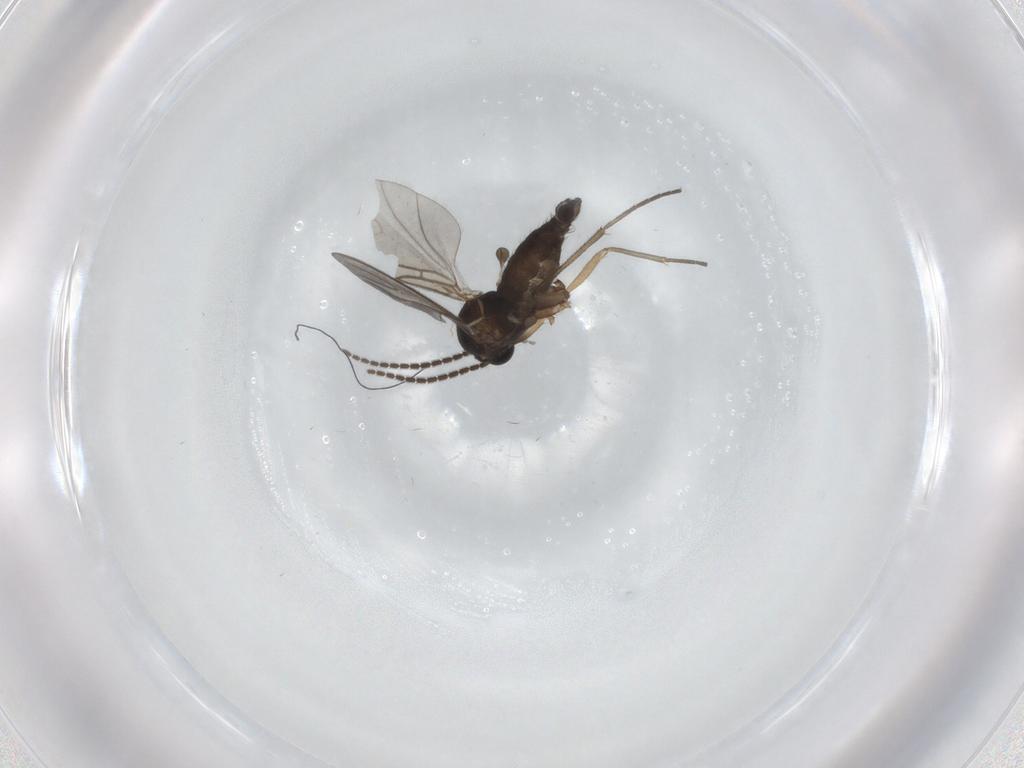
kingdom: Animalia
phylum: Arthropoda
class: Insecta
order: Diptera
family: Sciaridae
